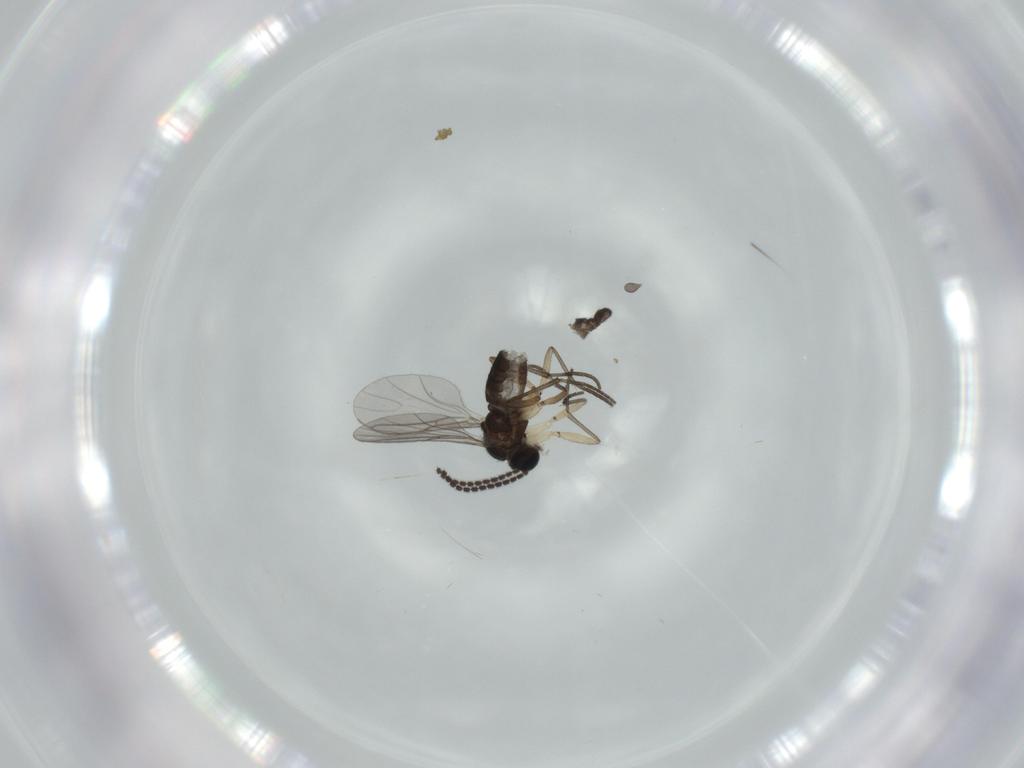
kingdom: Animalia
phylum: Arthropoda
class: Insecta
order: Diptera
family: Sciaridae
